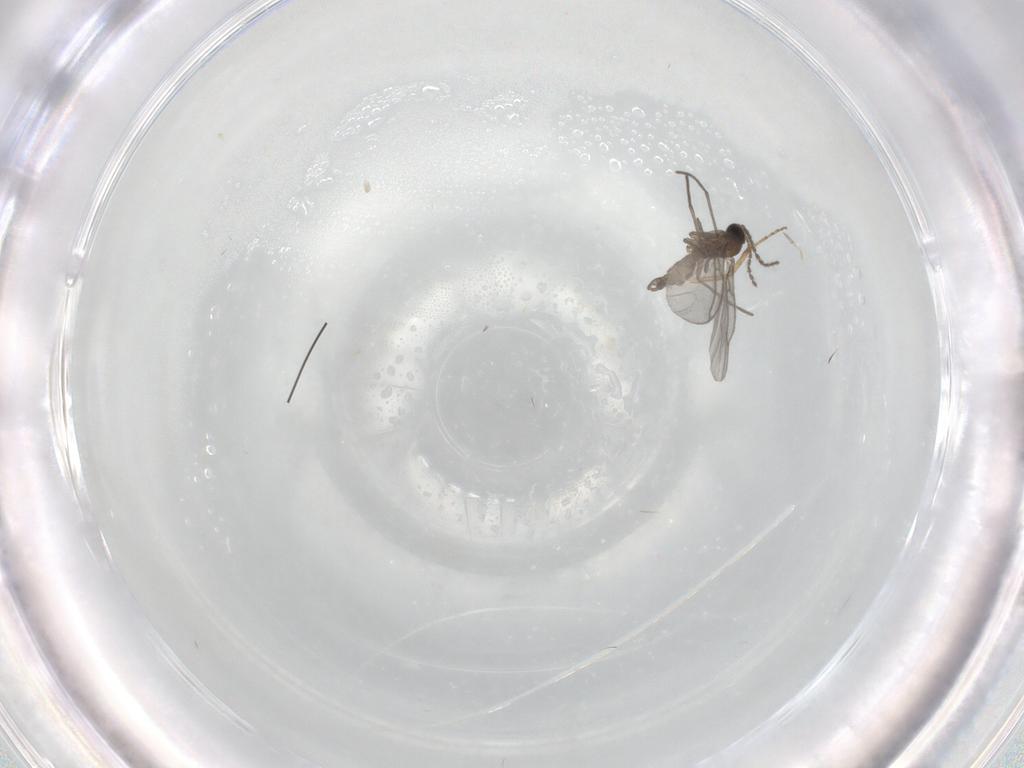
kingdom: Animalia
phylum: Arthropoda
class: Insecta
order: Diptera
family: Sciaridae
